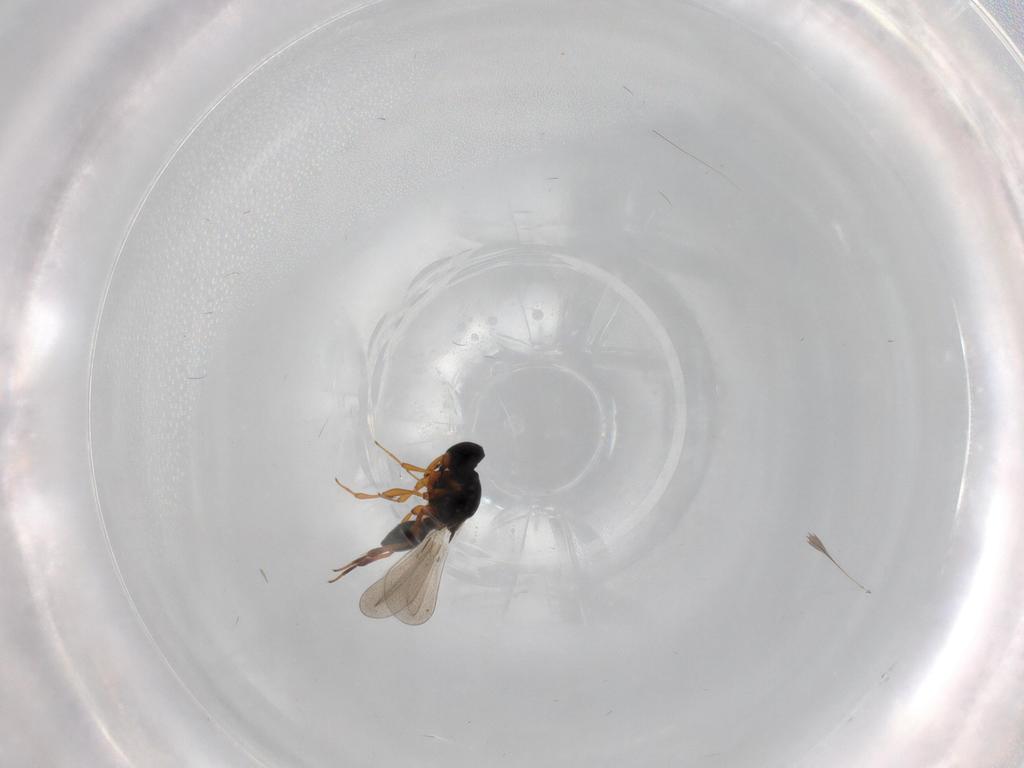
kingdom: Animalia
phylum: Arthropoda
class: Insecta
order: Hymenoptera
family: Platygastridae
